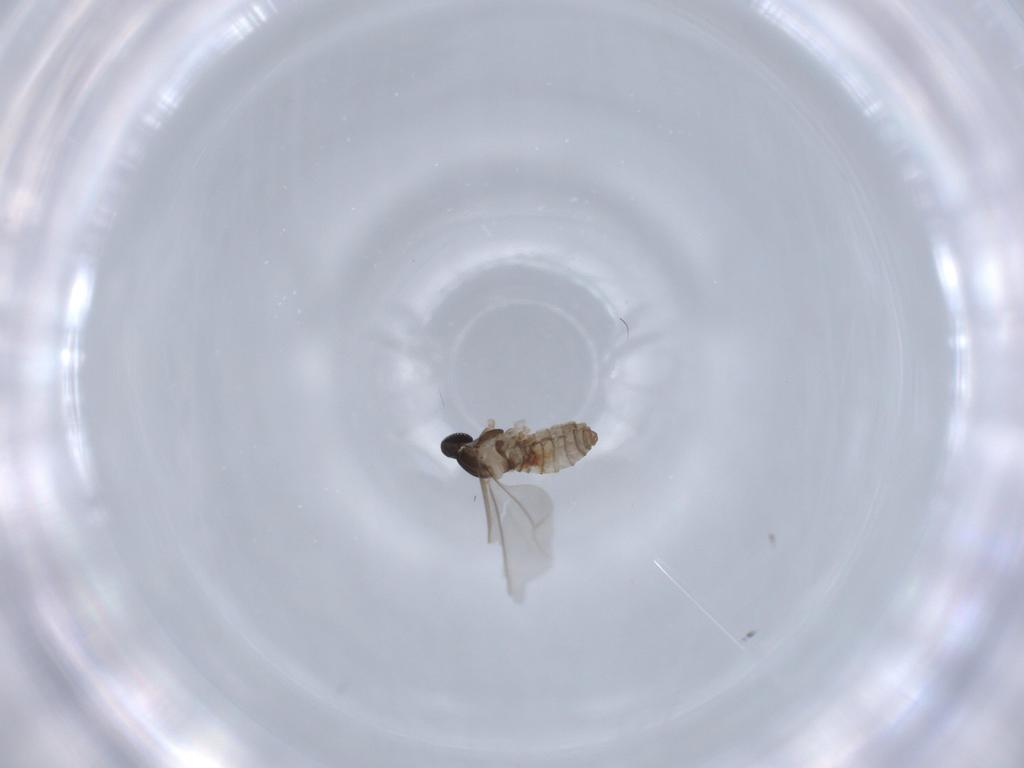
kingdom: Animalia
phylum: Arthropoda
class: Insecta
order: Diptera
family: Cecidomyiidae
